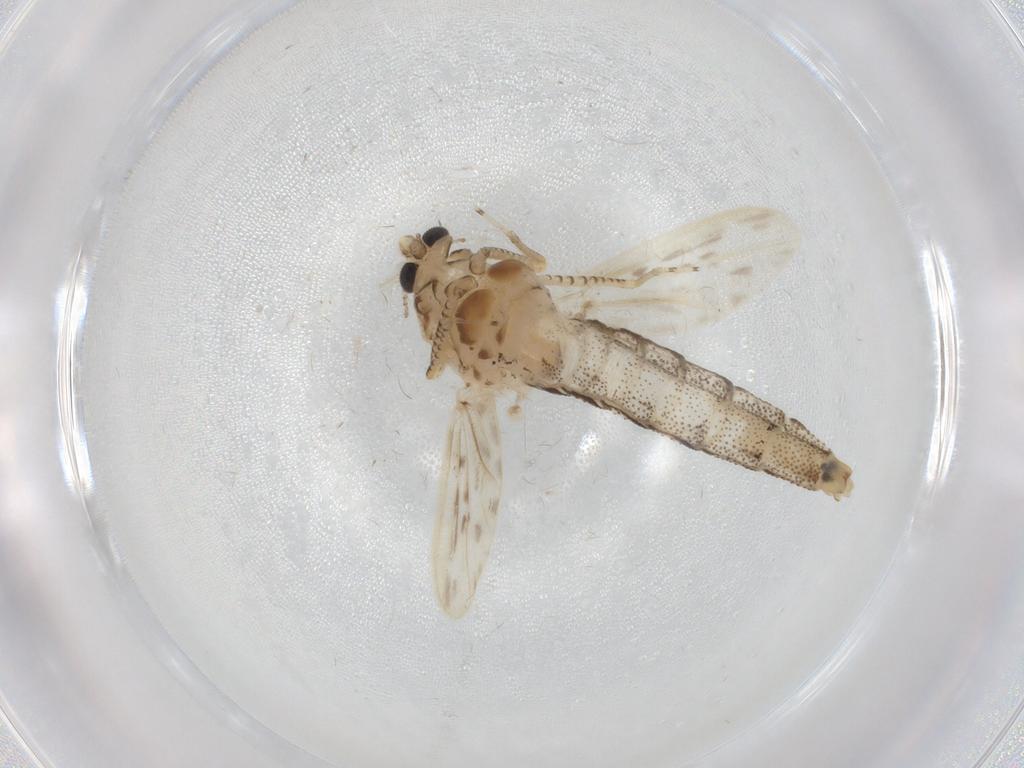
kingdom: Animalia
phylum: Arthropoda
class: Insecta
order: Diptera
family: Chaoboridae
